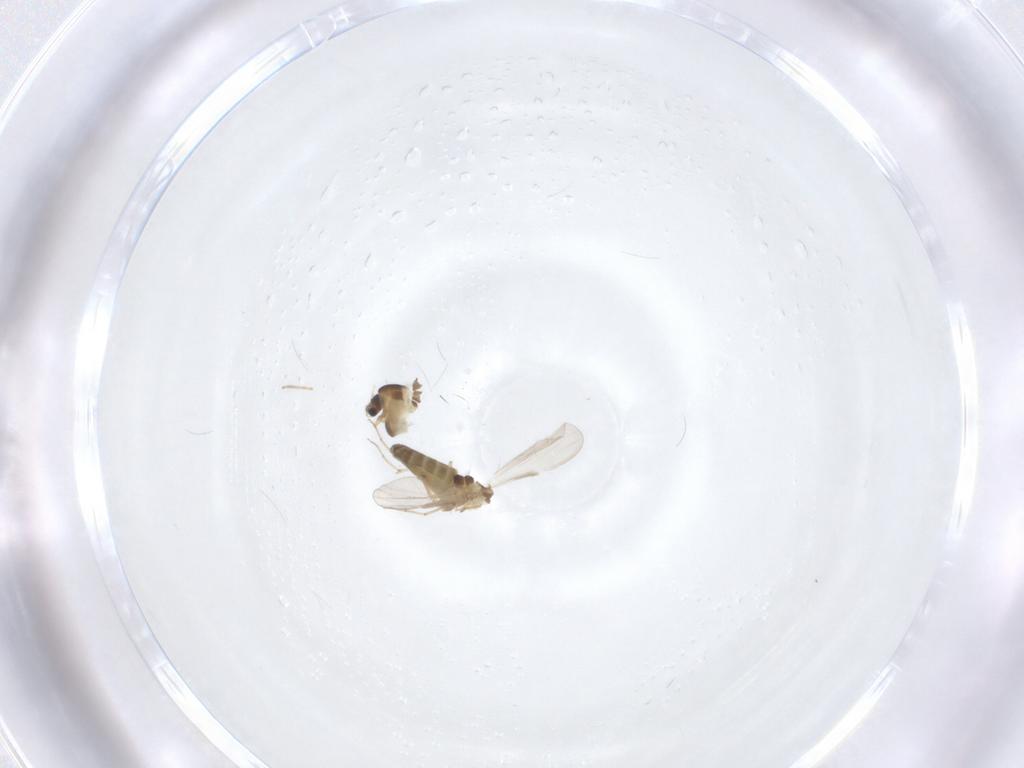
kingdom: Animalia
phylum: Arthropoda
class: Insecta
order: Diptera
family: Chironomidae
